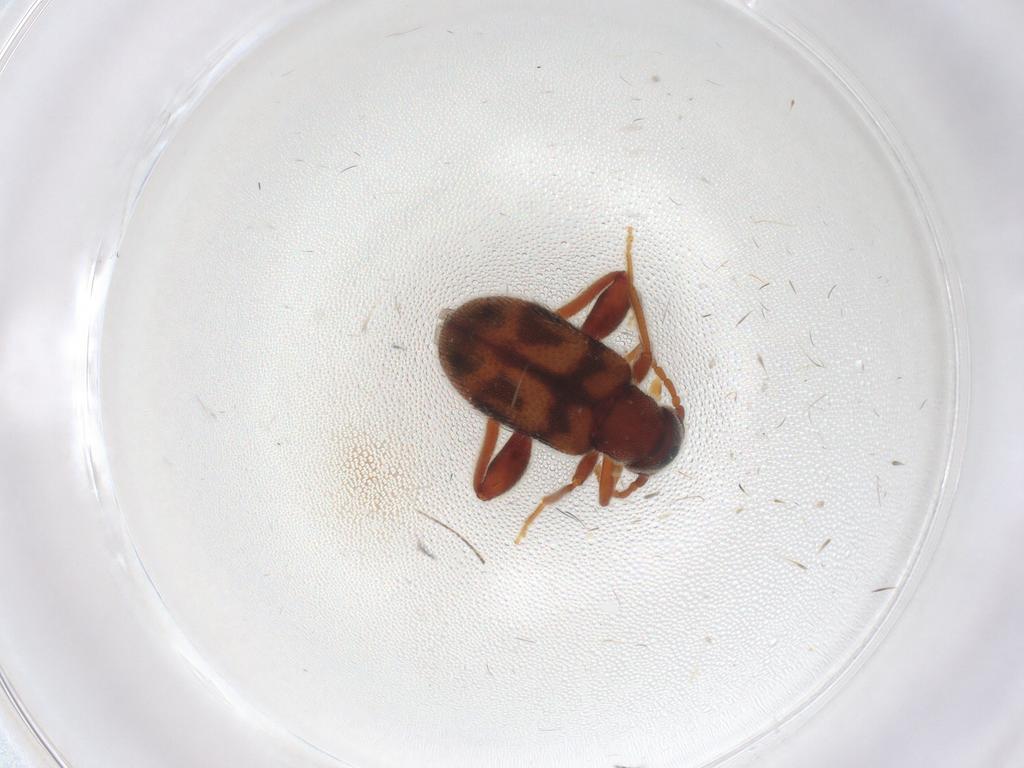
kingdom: Animalia
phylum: Arthropoda
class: Insecta
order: Coleoptera
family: Aderidae
